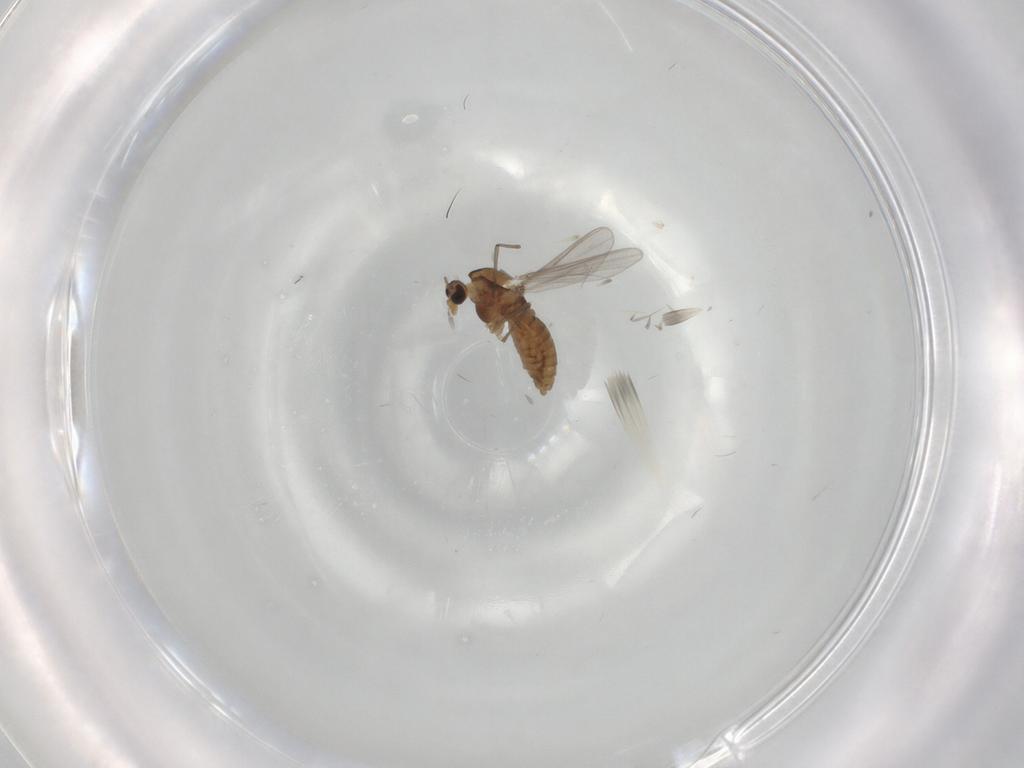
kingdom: Animalia
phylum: Arthropoda
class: Insecta
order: Diptera
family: Chironomidae
